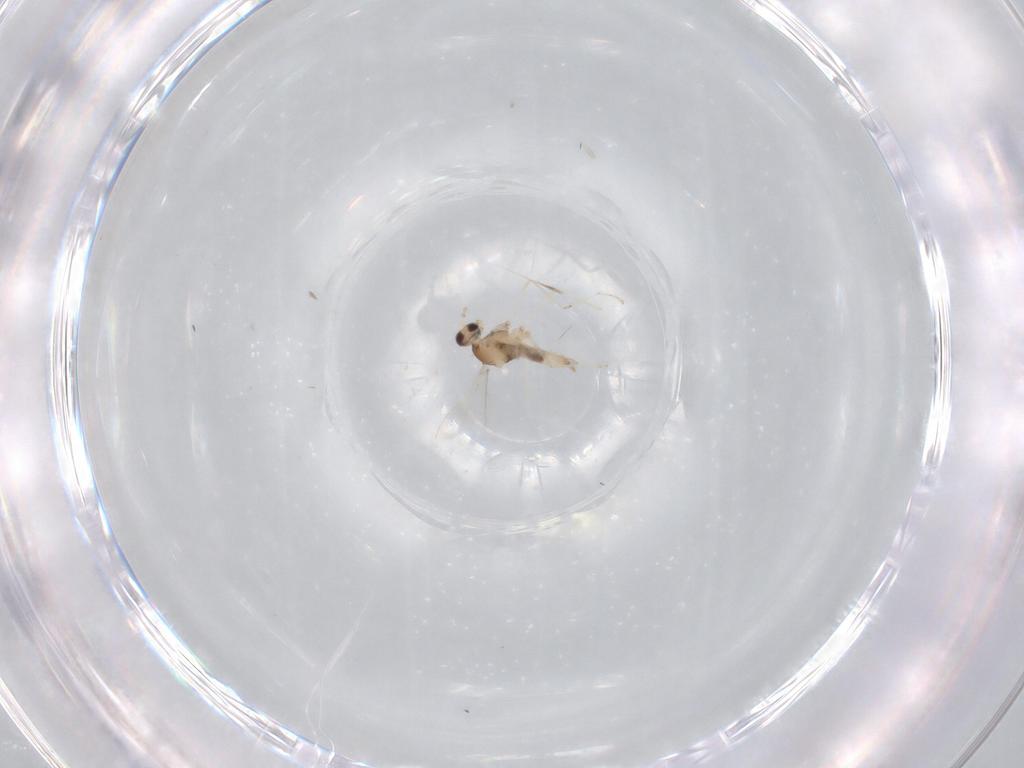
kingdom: Animalia
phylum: Arthropoda
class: Insecta
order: Diptera
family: Cecidomyiidae
